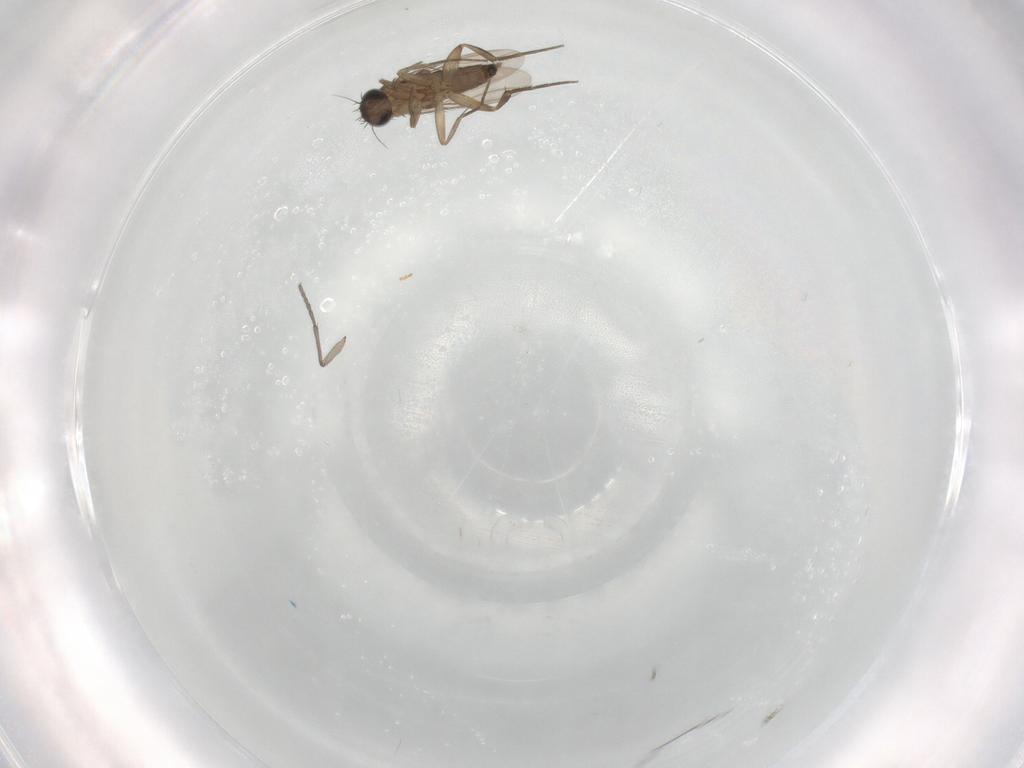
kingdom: Animalia
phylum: Arthropoda
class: Insecta
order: Diptera
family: Phoridae
